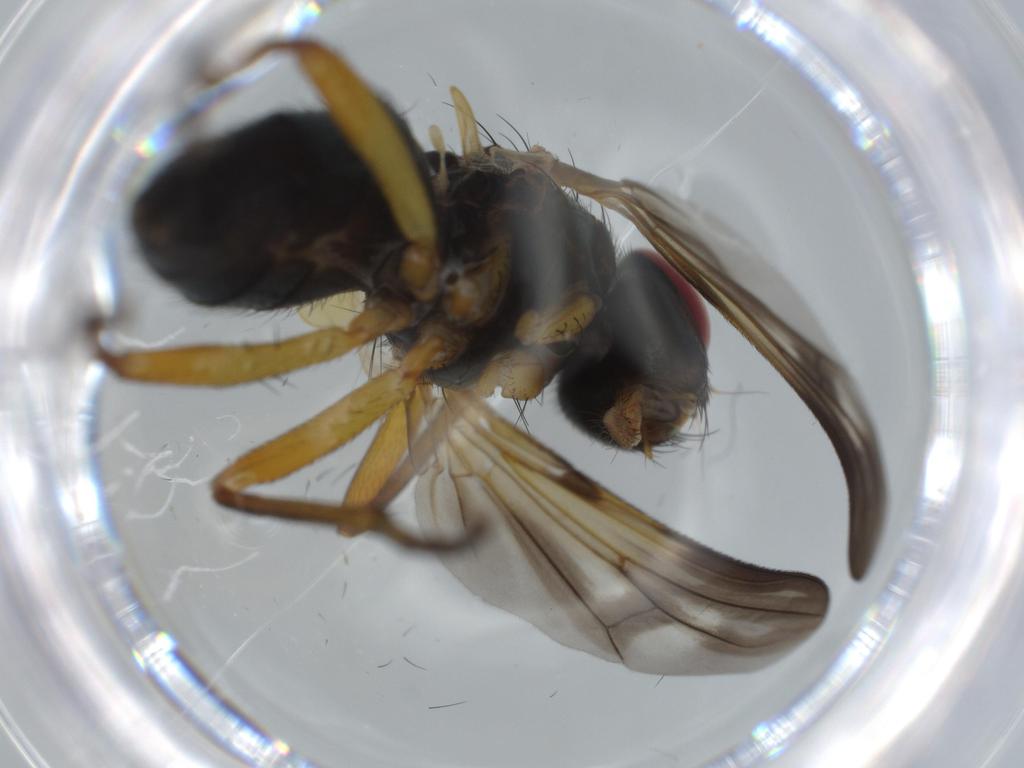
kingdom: Animalia
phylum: Arthropoda
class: Insecta
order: Diptera
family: Calliphoridae
